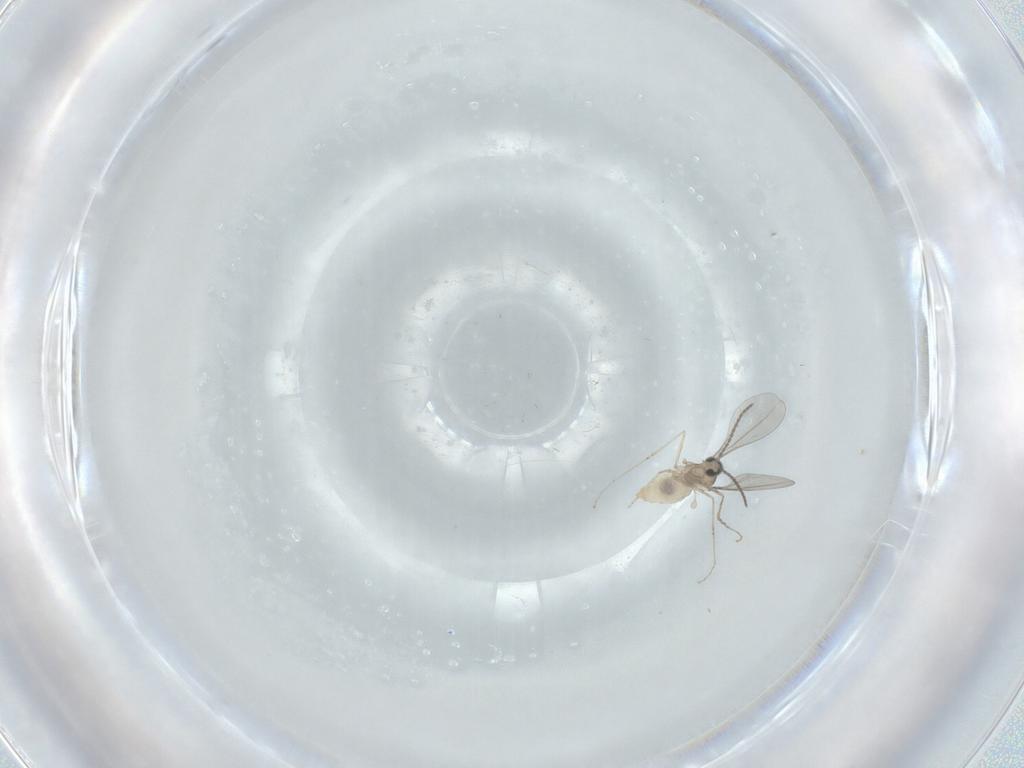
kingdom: Animalia
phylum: Arthropoda
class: Insecta
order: Diptera
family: Cecidomyiidae
